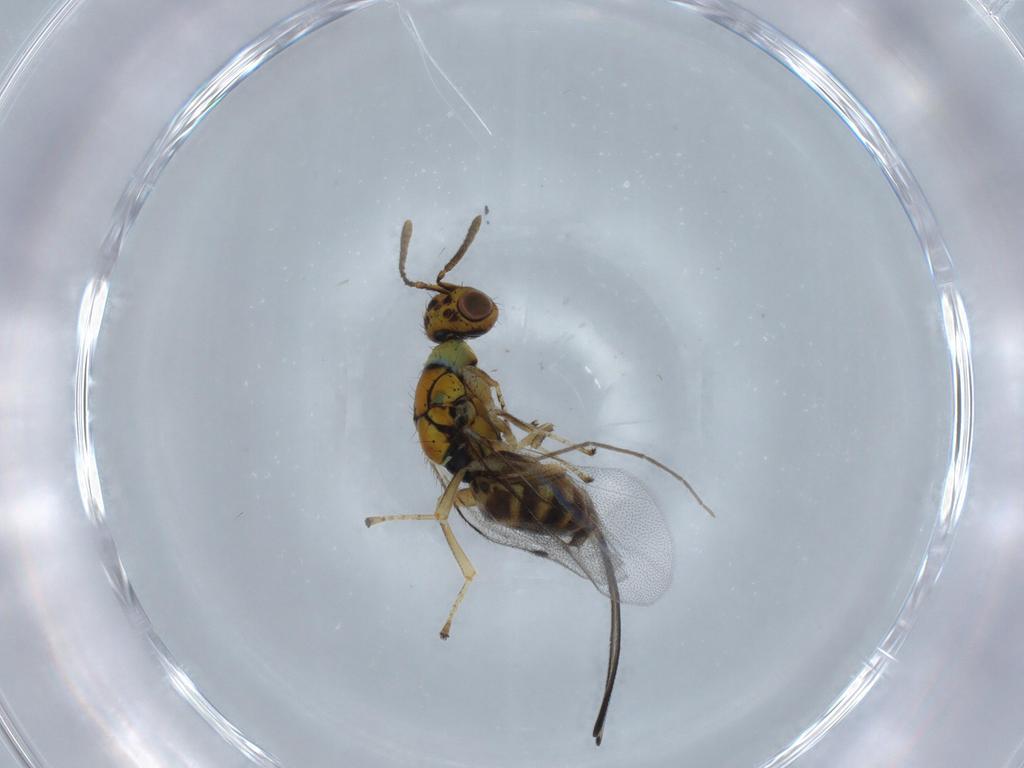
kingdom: Animalia
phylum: Arthropoda
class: Insecta
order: Hymenoptera
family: Megastigmidae
